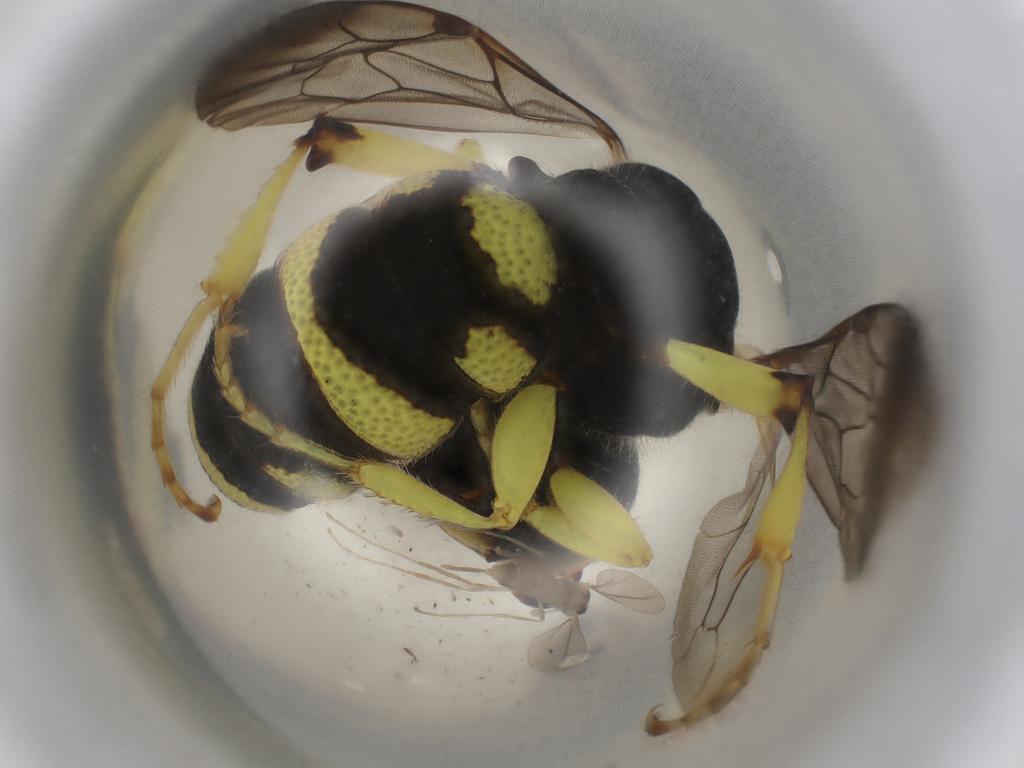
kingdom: Animalia
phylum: Arthropoda
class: Insecta
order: Diptera
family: Cecidomyiidae
